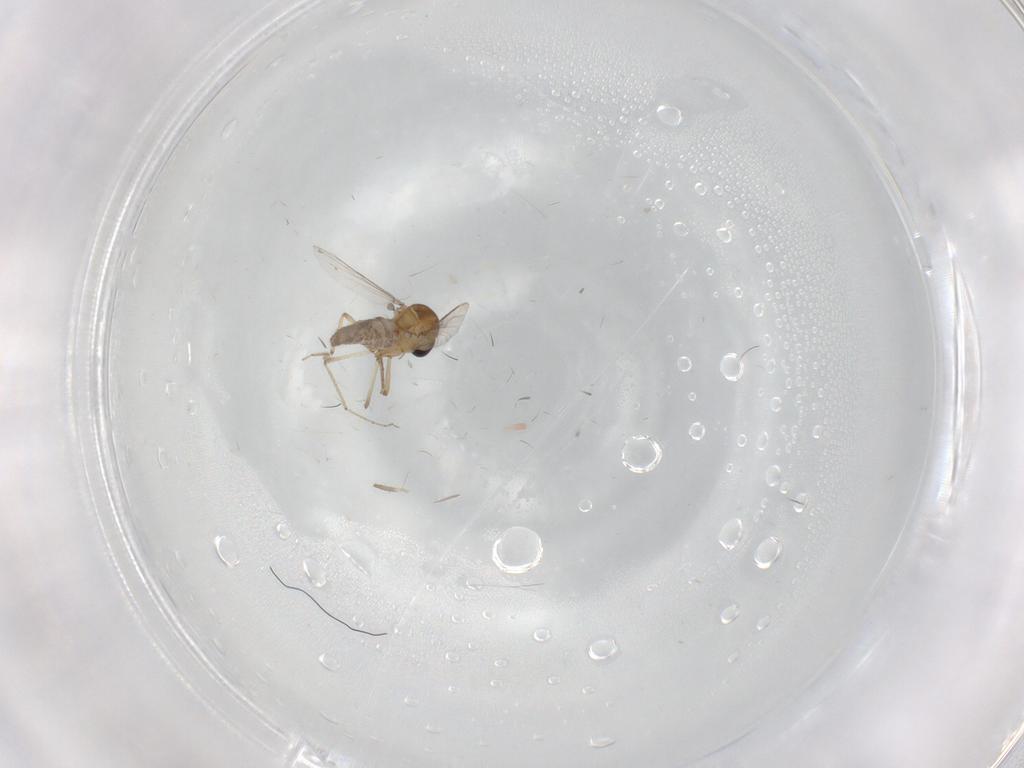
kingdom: Animalia
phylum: Arthropoda
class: Insecta
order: Diptera
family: Ceratopogonidae
